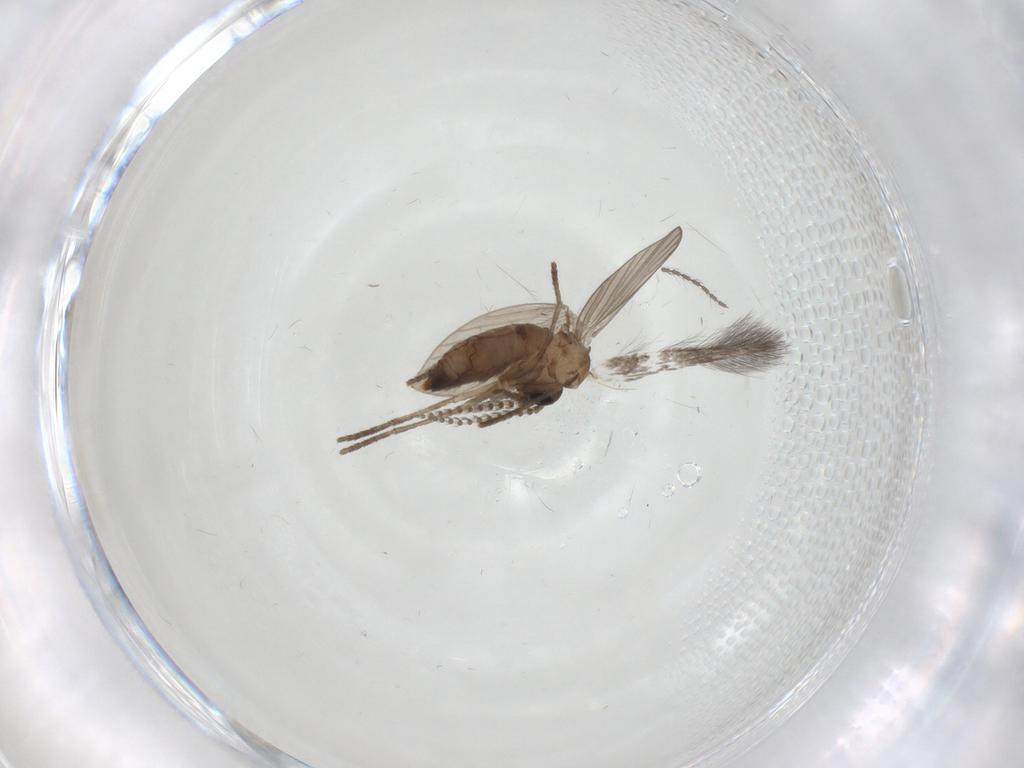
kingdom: Animalia
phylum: Arthropoda
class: Insecta
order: Diptera
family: Psychodidae
